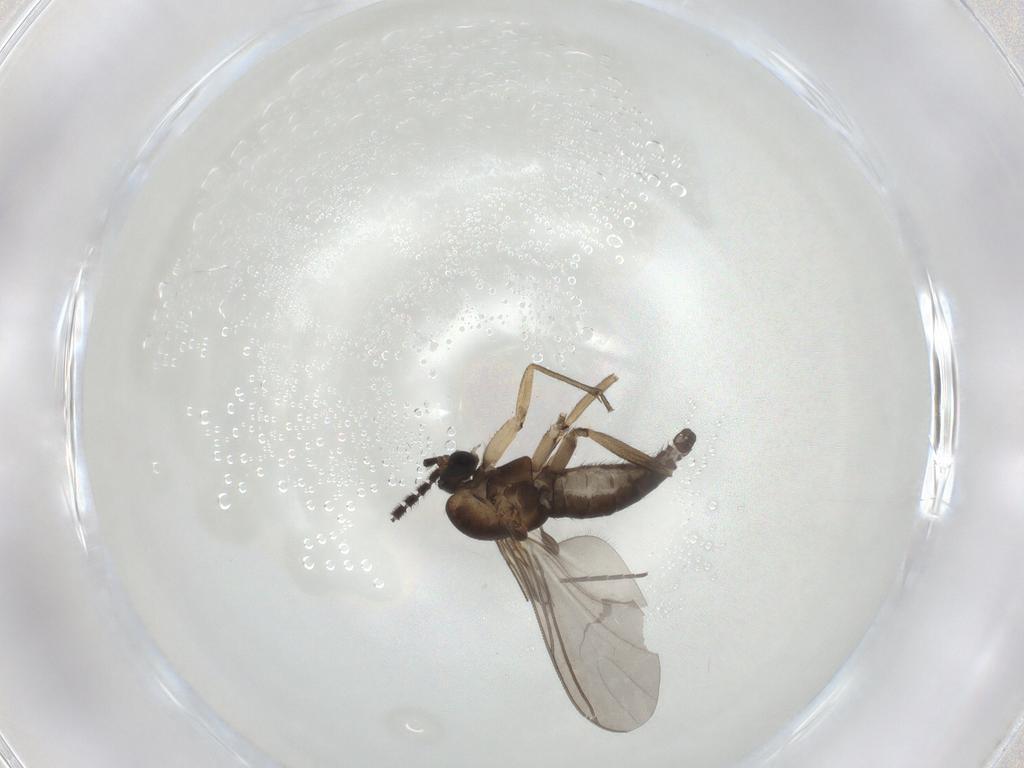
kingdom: Animalia
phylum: Arthropoda
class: Insecta
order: Diptera
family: Sciaridae
